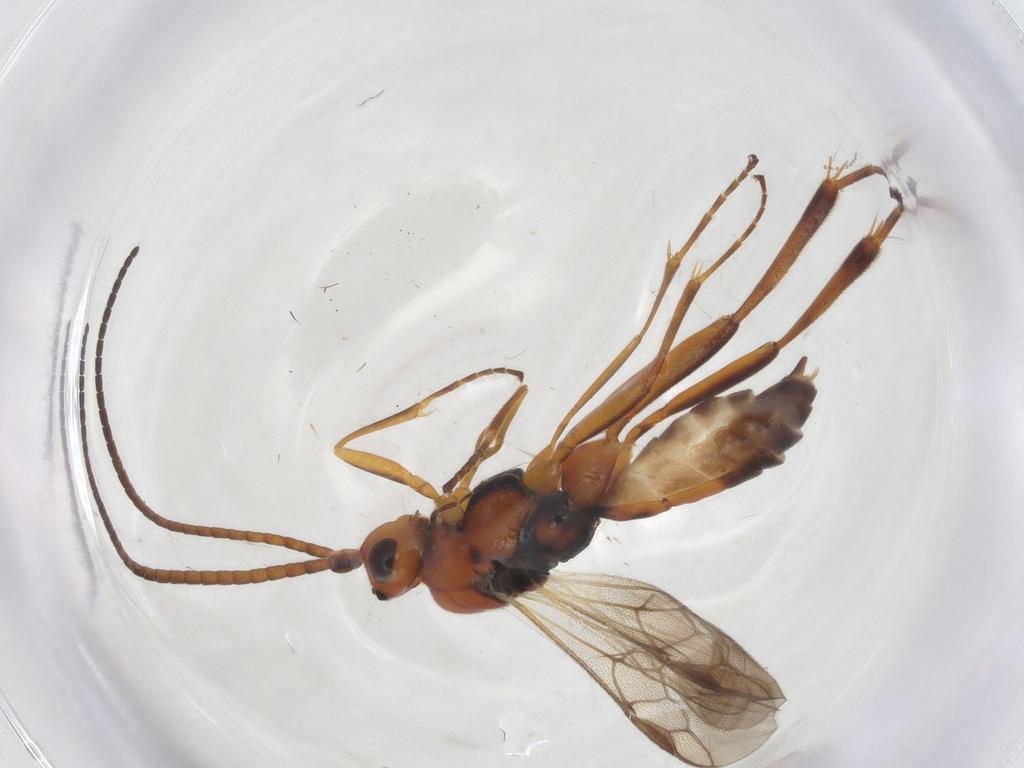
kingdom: Animalia
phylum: Arthropoda
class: Insecta
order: Hymenoptera
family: Braconidae
